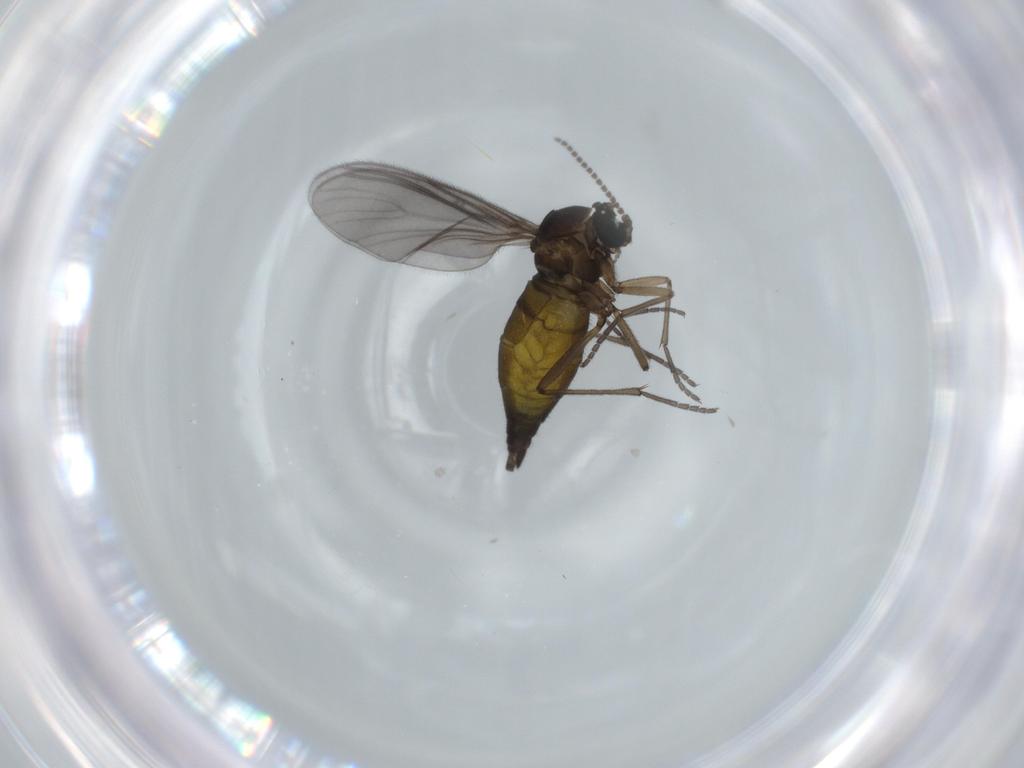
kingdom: Animalia
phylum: Arthropoda
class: Insecta
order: Diptera
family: Sciaridae
